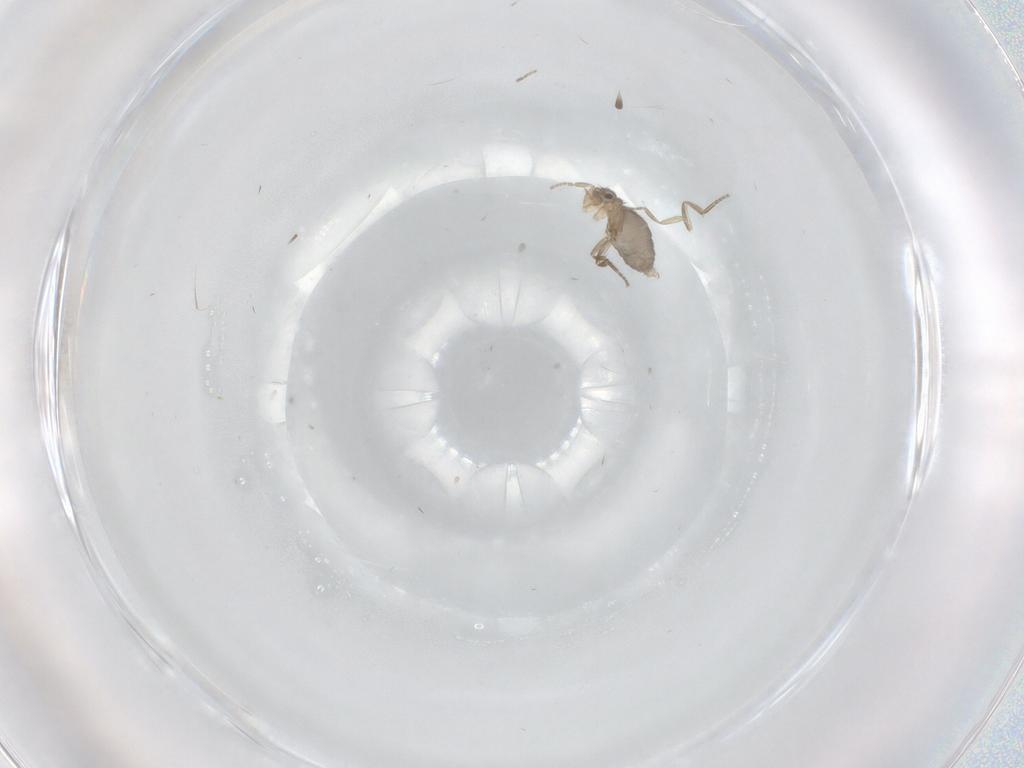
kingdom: Animalia
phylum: Arthropoda
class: Insecta
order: Diptera
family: Phoridae
